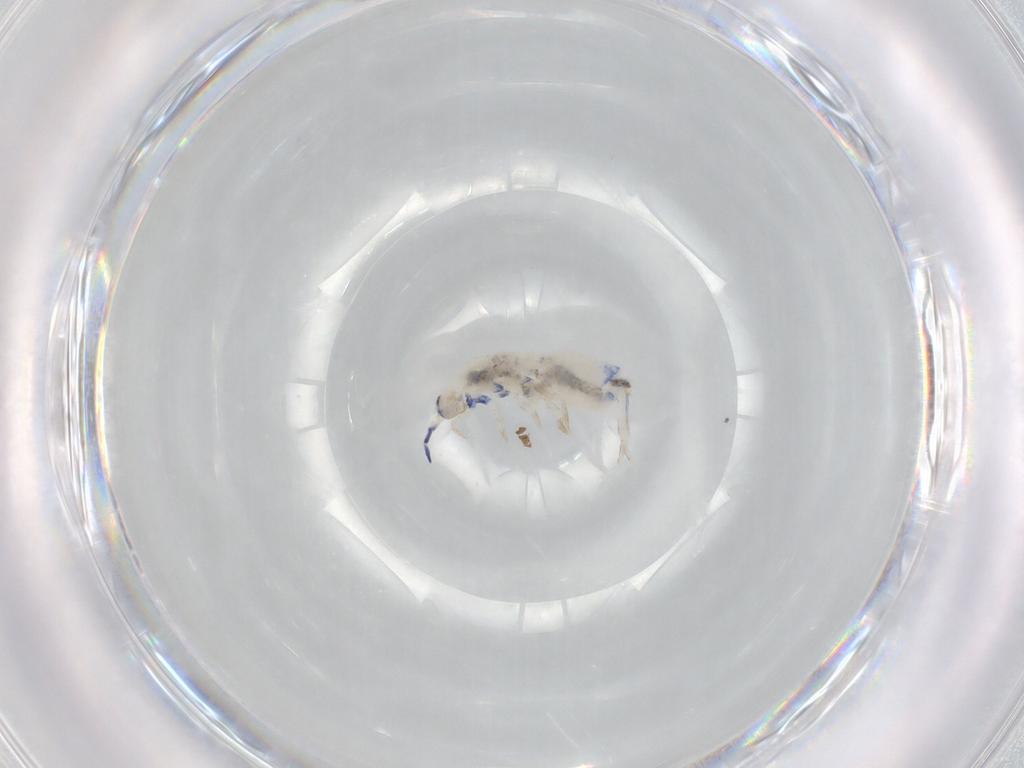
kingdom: Animalia
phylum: Arthropoda
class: Collembola
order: Entomobryomorpha
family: Entomobryidae
